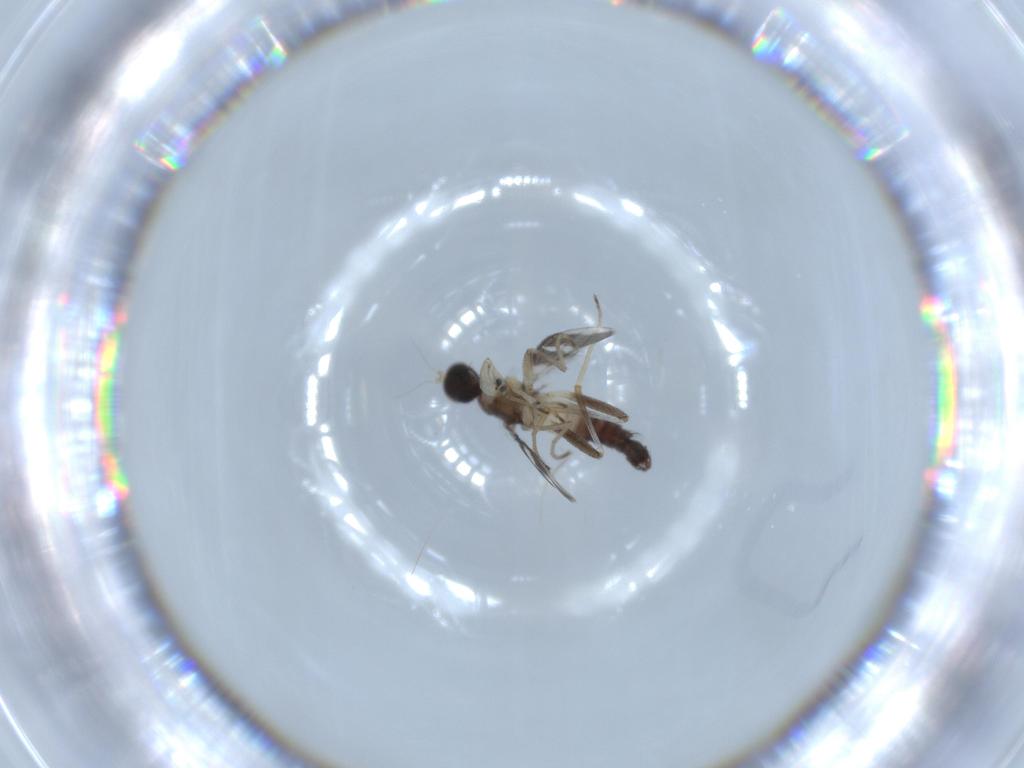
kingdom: Animalia
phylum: Arthropoda
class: Insecta
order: Diptera
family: Hybotidae
